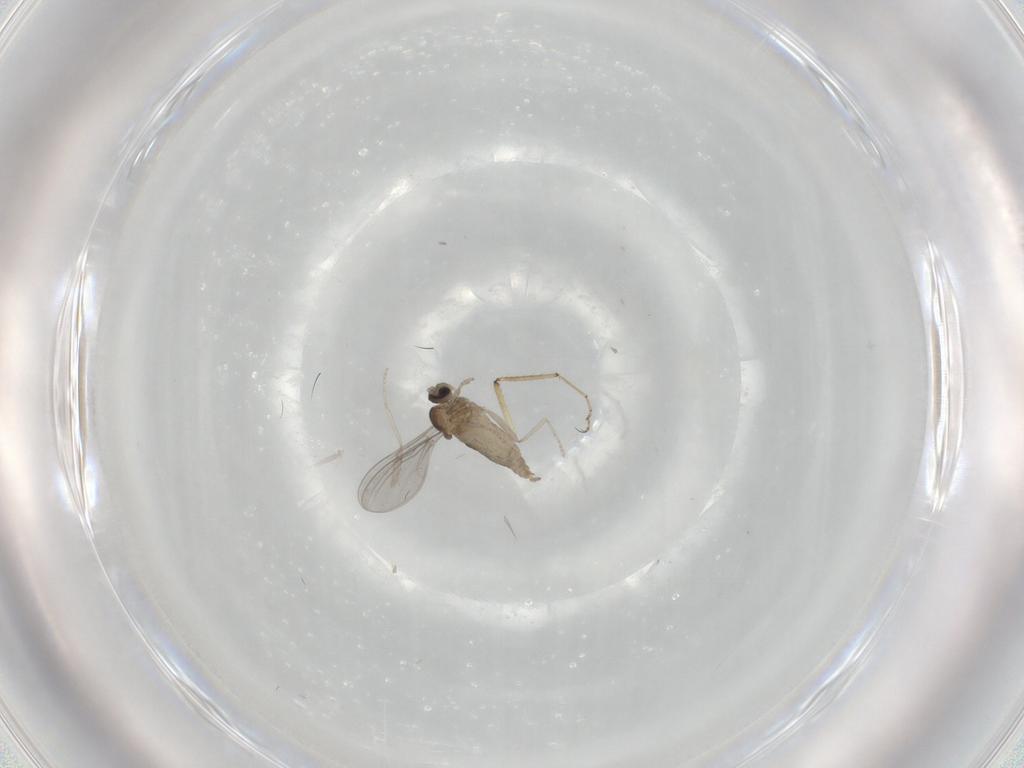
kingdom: Animalia
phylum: Arthropoda
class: Insecta
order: Diptera
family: Cecidomyiidae
